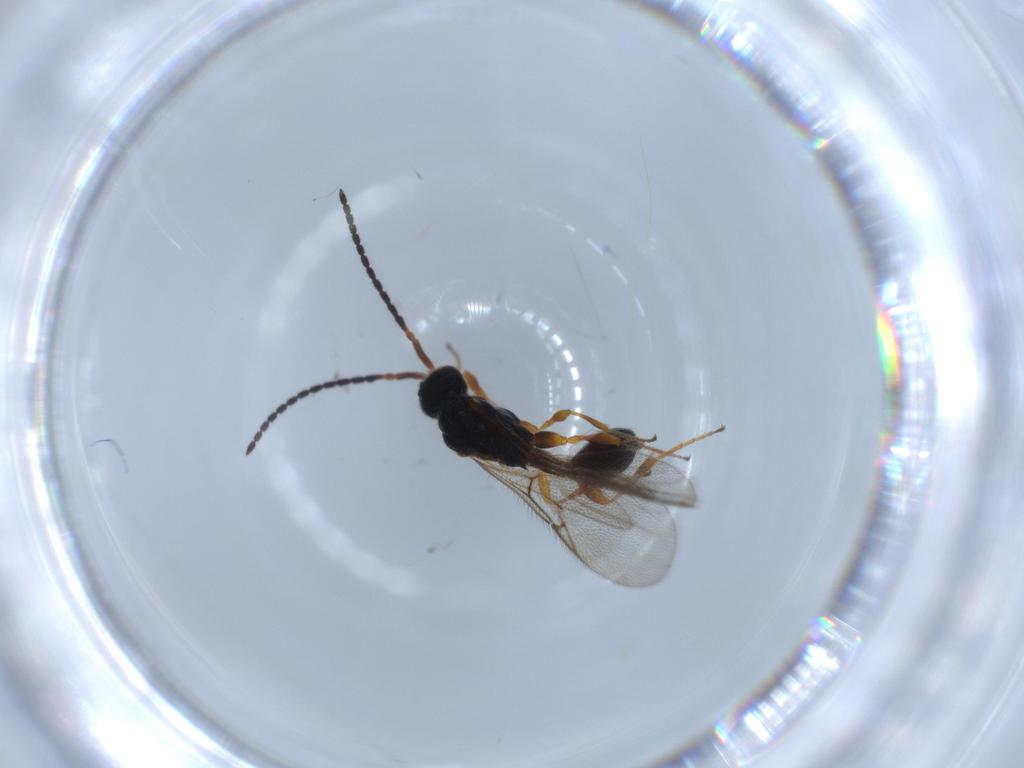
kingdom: Animalia
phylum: Arthropoda
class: Insecta
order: Hymenoptera
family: Diapriidae
